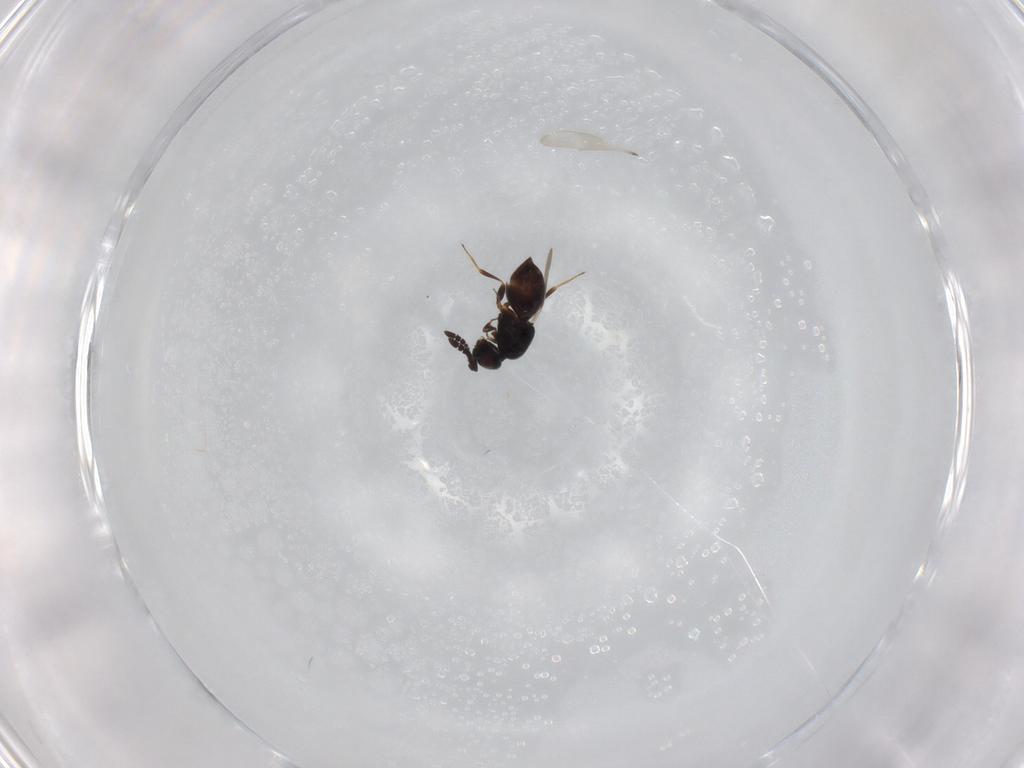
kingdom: Animalia
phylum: Arthropoda
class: Insecta
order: Hymenoptera
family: Ceraphronidae
